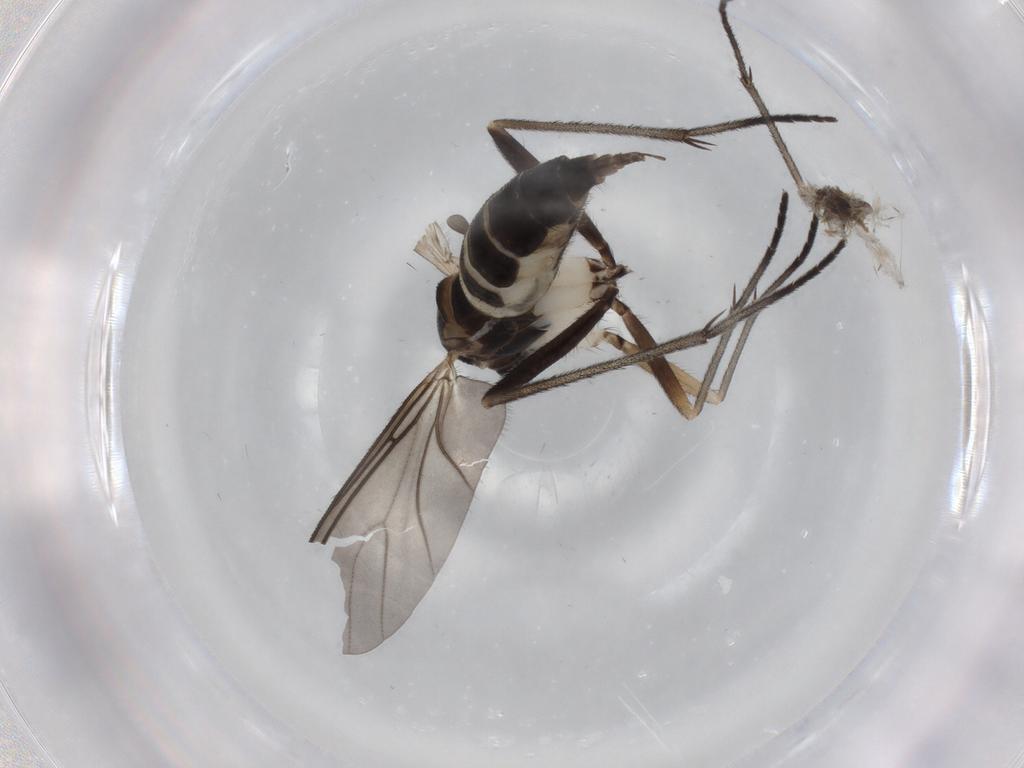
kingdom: Animalia
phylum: Arthropoda
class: Insecta
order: Diptera
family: Sciaridae
